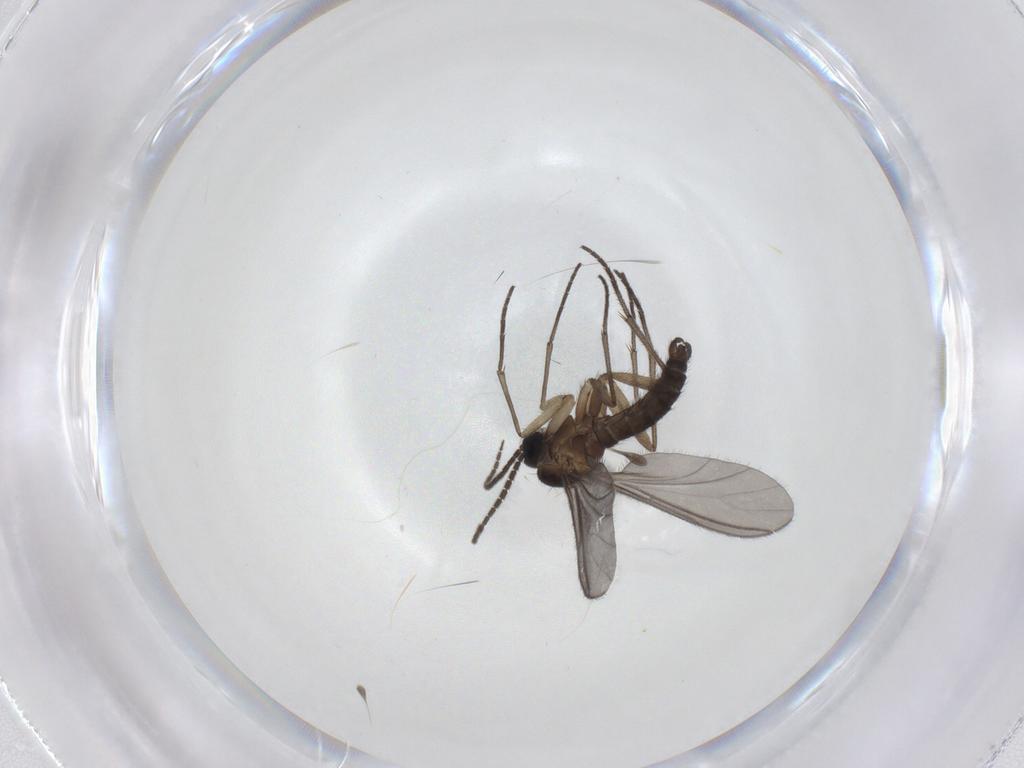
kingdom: Animalia
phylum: Arthropoda
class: Insecta
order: Diptera
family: Sciaridae
